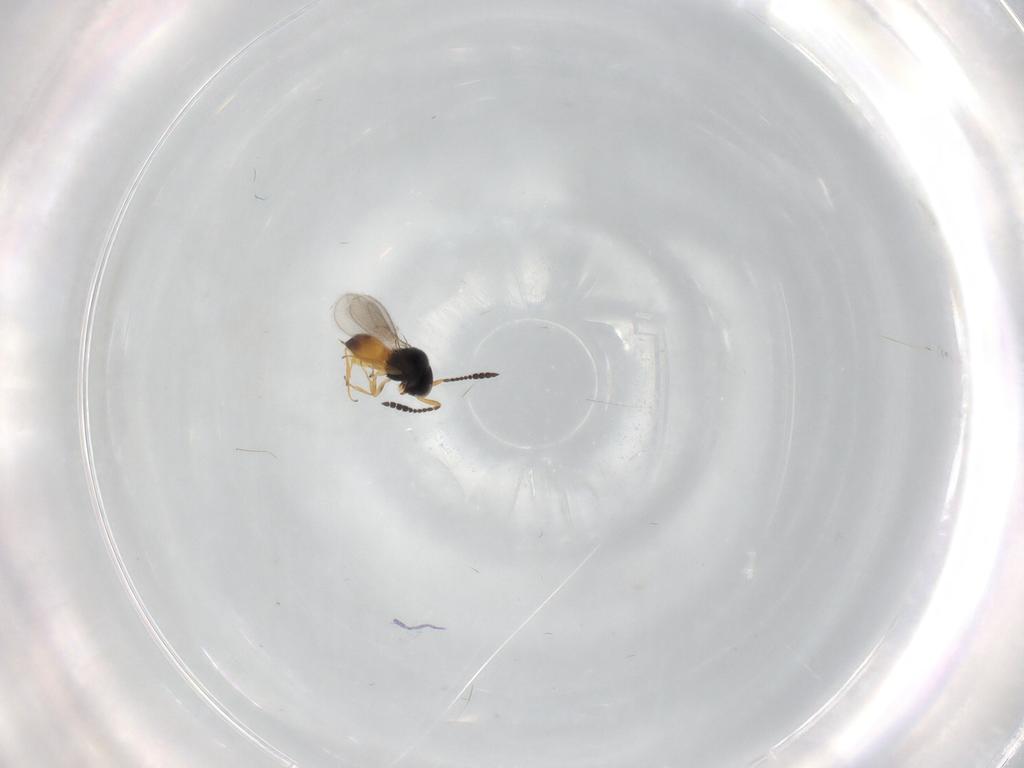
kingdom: Animalia
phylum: Arthropoda
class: Insecta
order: Hymenoptera
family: Scelionidae
